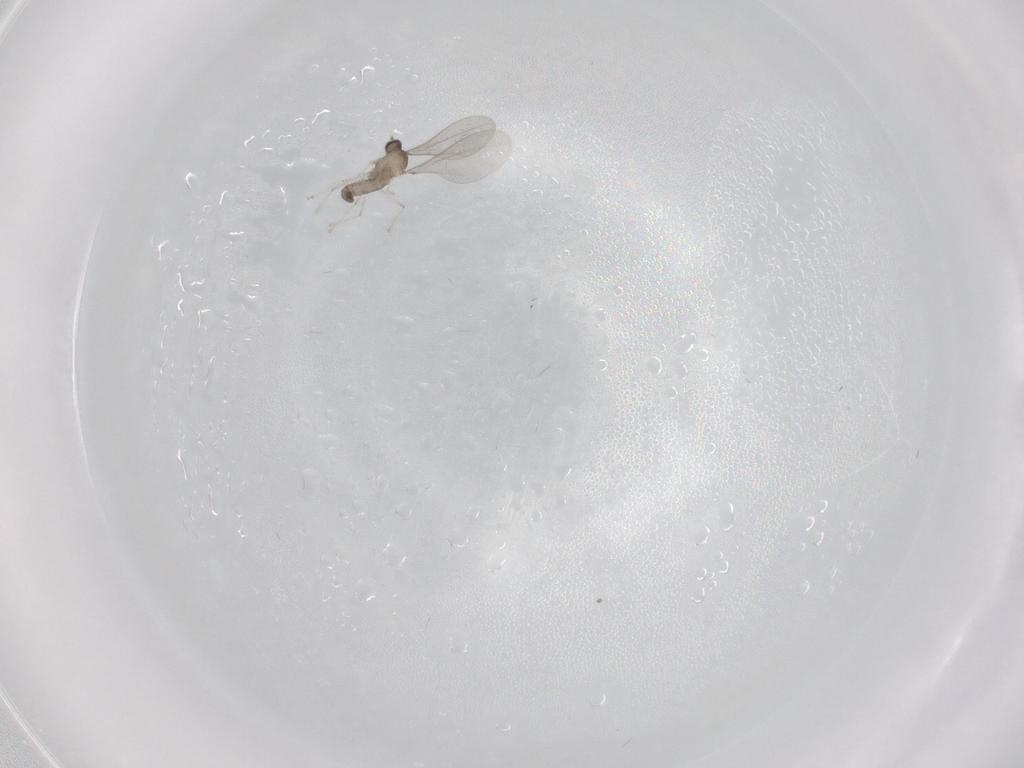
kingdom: Animalia
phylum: Arthropoda
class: Insecta
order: Diptera
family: Cecidomyiidae
